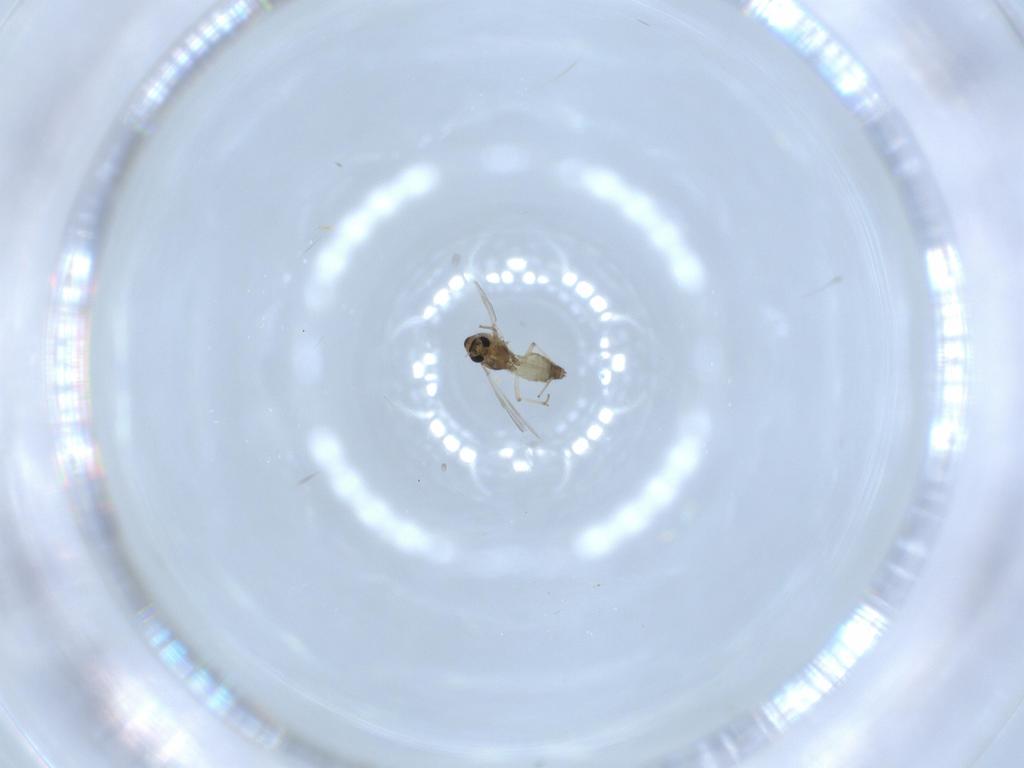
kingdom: Animalia
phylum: Arthropoda
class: Insecta
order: Diptera
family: Chironomidae
